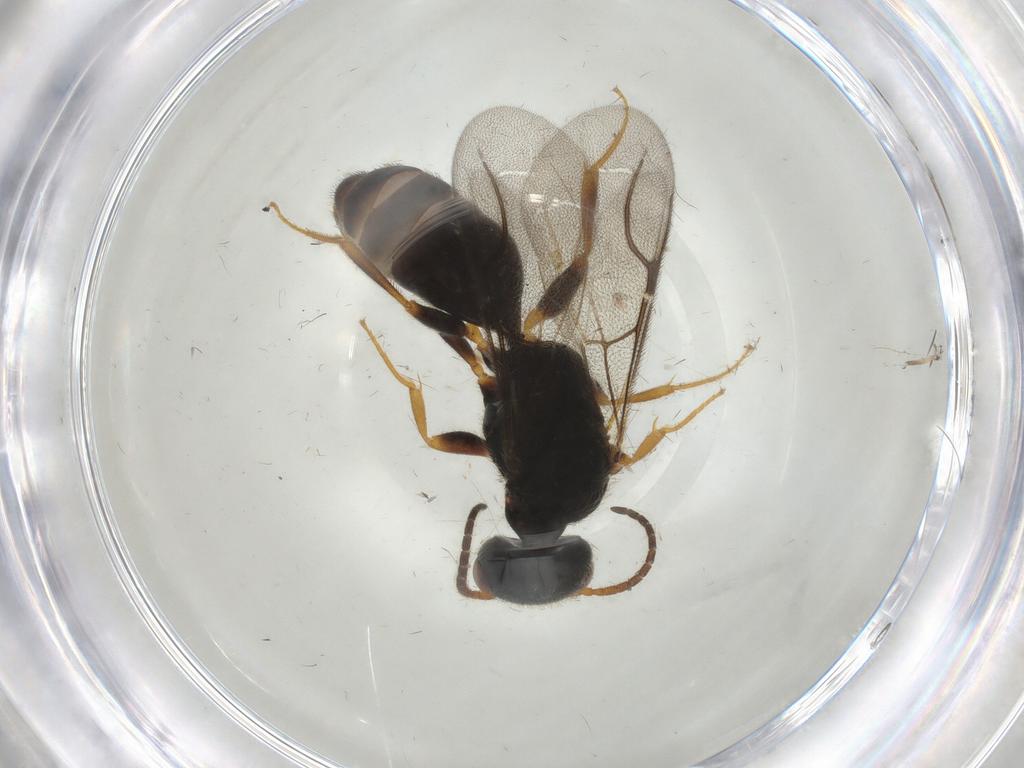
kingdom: Animalia
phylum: Arthropoda
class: Insecta
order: Hymenoptera
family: Bethylidae
